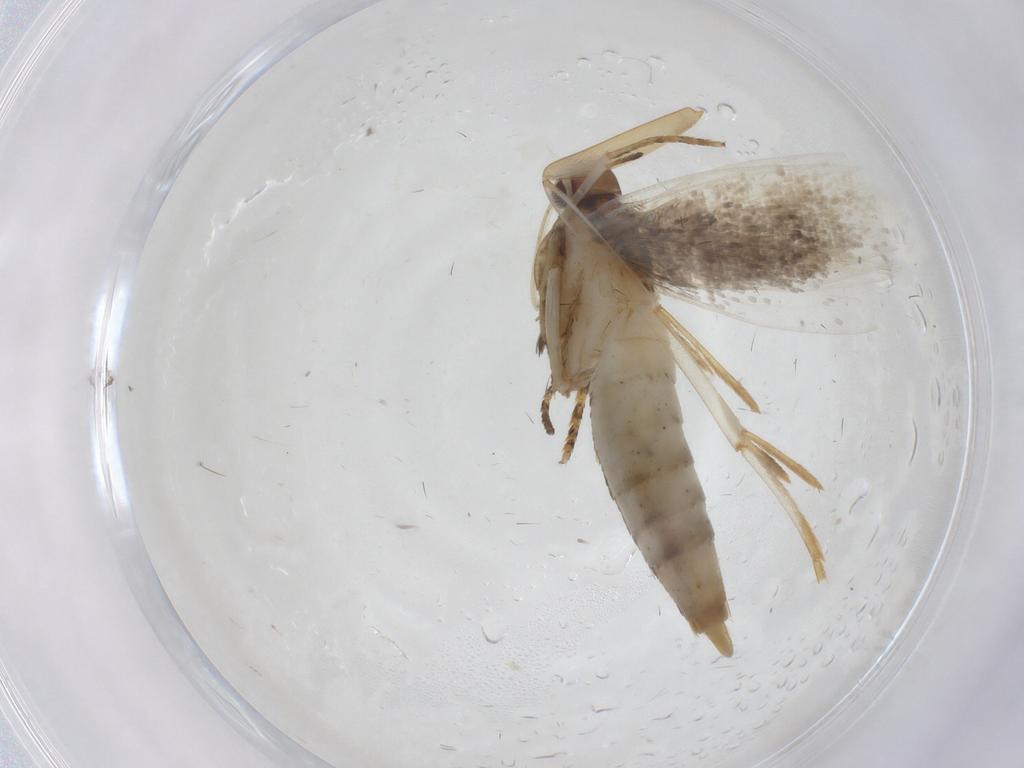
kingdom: Animalia
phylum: Arthropoda
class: Insecta
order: Lepidoptera
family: Gelechiidae
